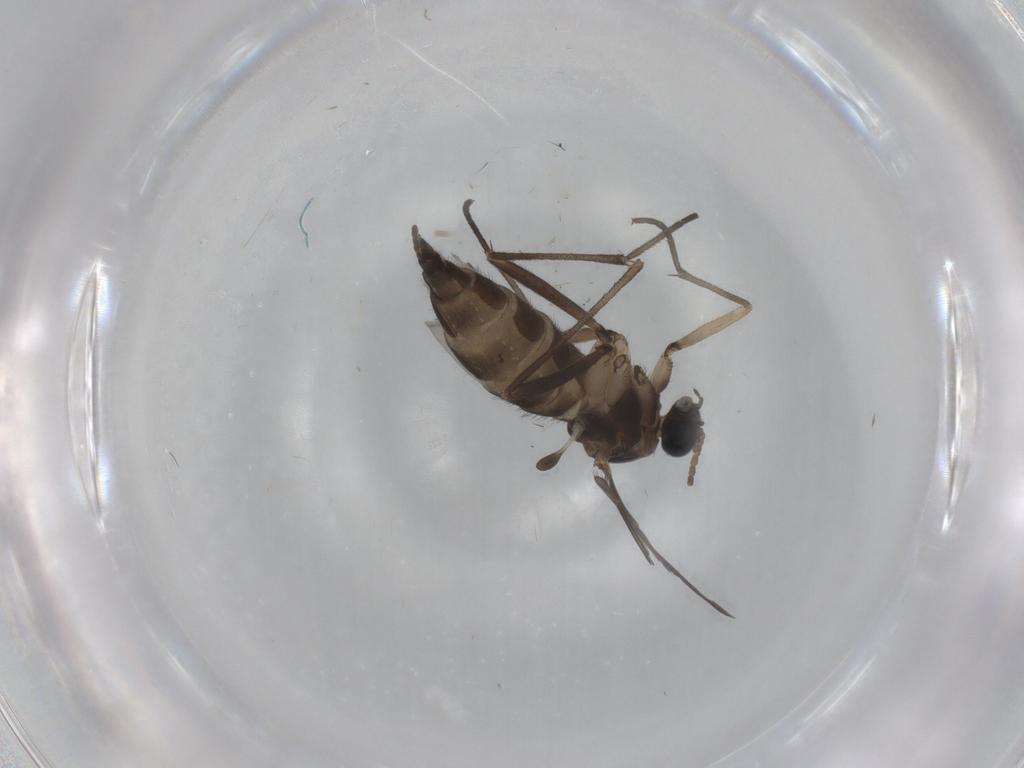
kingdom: Animalia
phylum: Arthropoda
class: Insecta
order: Diptera
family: Sciaridae
